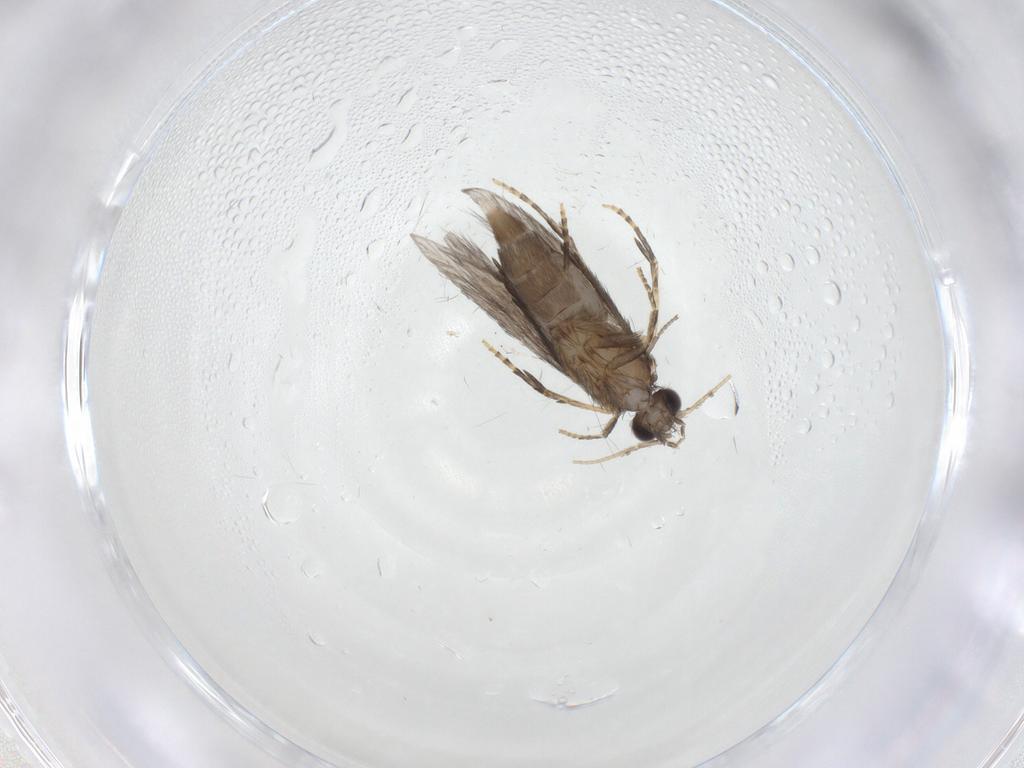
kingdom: Animalia
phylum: Arthropoda
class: Insecta
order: Trichoptera
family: Hydroptilidae
